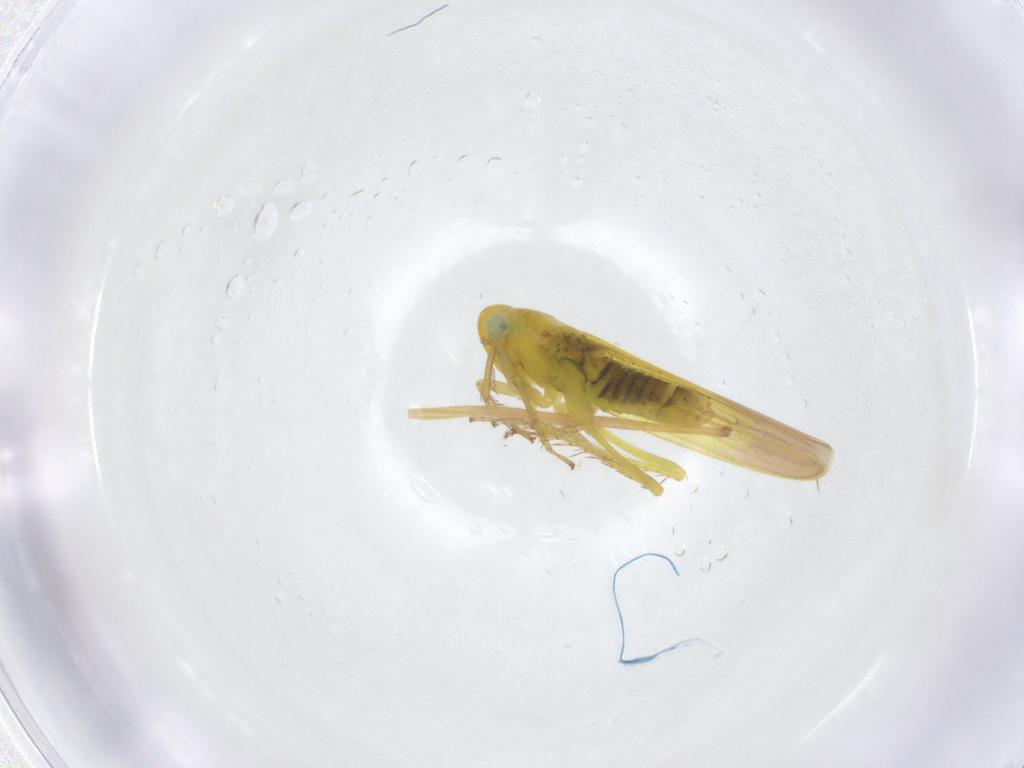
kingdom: Animalia
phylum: Arthropoda
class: Insecta
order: Hemiptera
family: Cicadellidae
